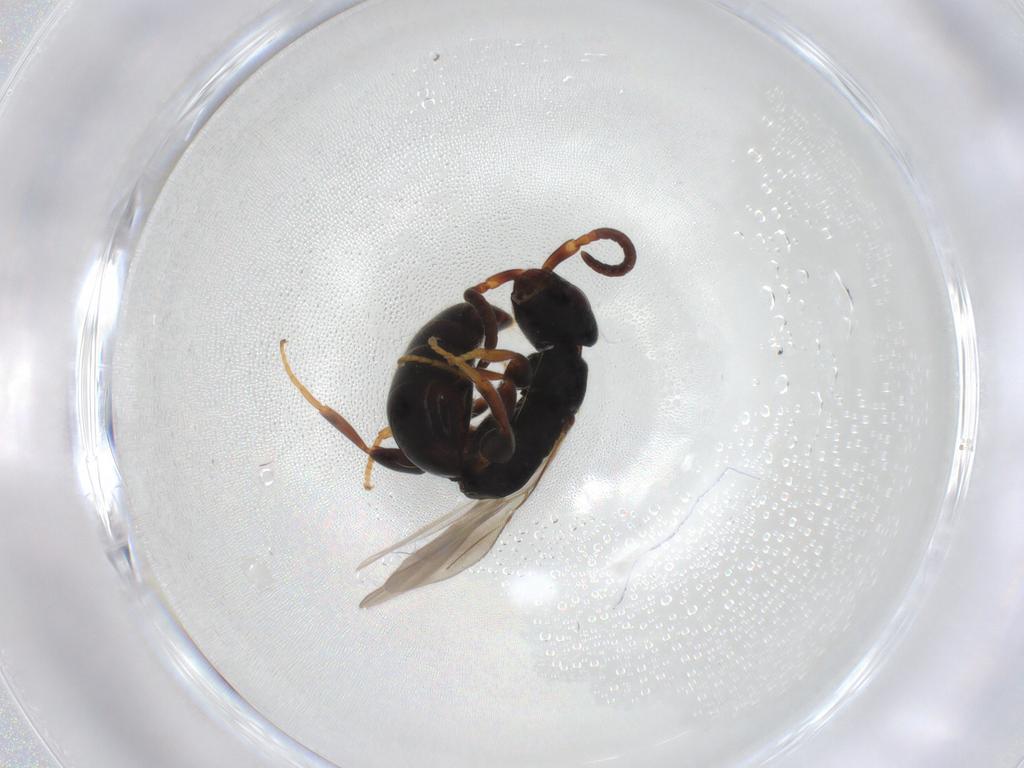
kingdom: Animalia
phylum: Arthropoda
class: Insecta
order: Hymenoptera
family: Bethylidae
